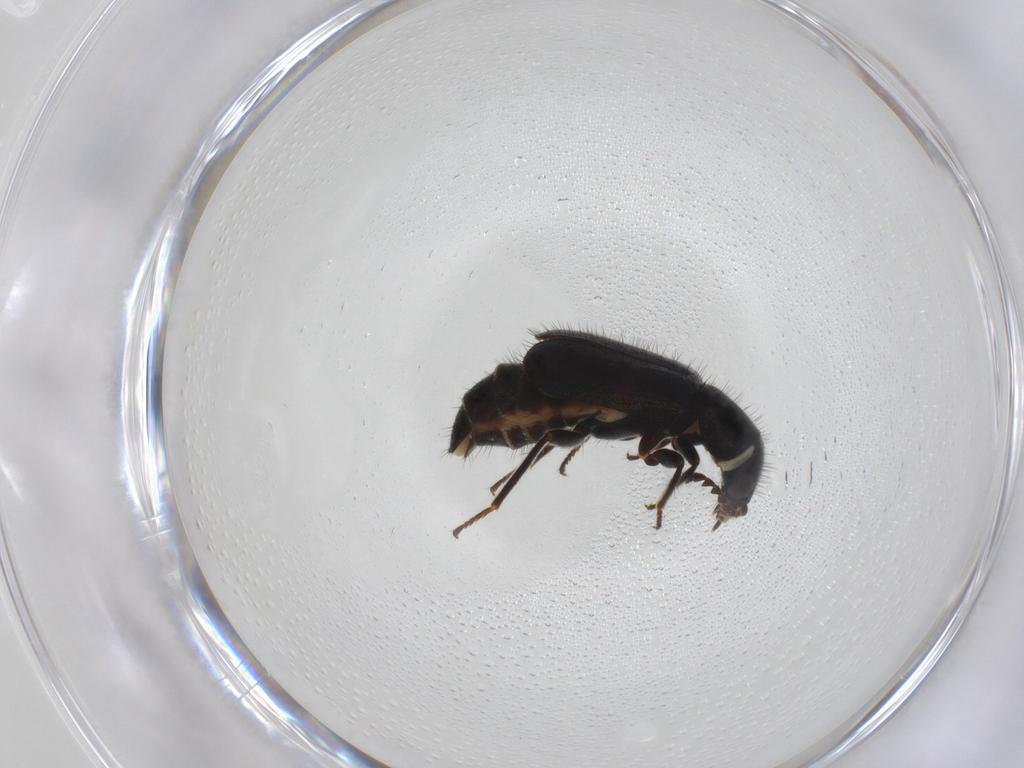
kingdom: Animalia
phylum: Arthropoda
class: Insecta
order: Coleoptera
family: Melyridae
